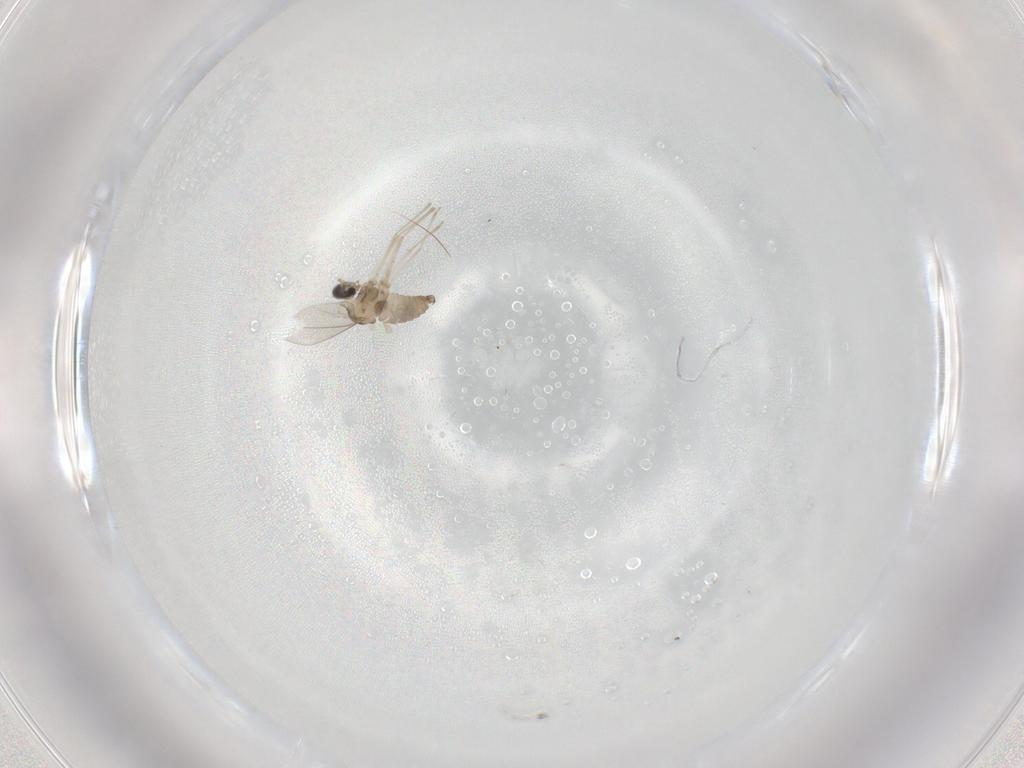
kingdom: Animalia
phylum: Arthropoda
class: Insecta
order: Diptera
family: Cecidomyiidae
